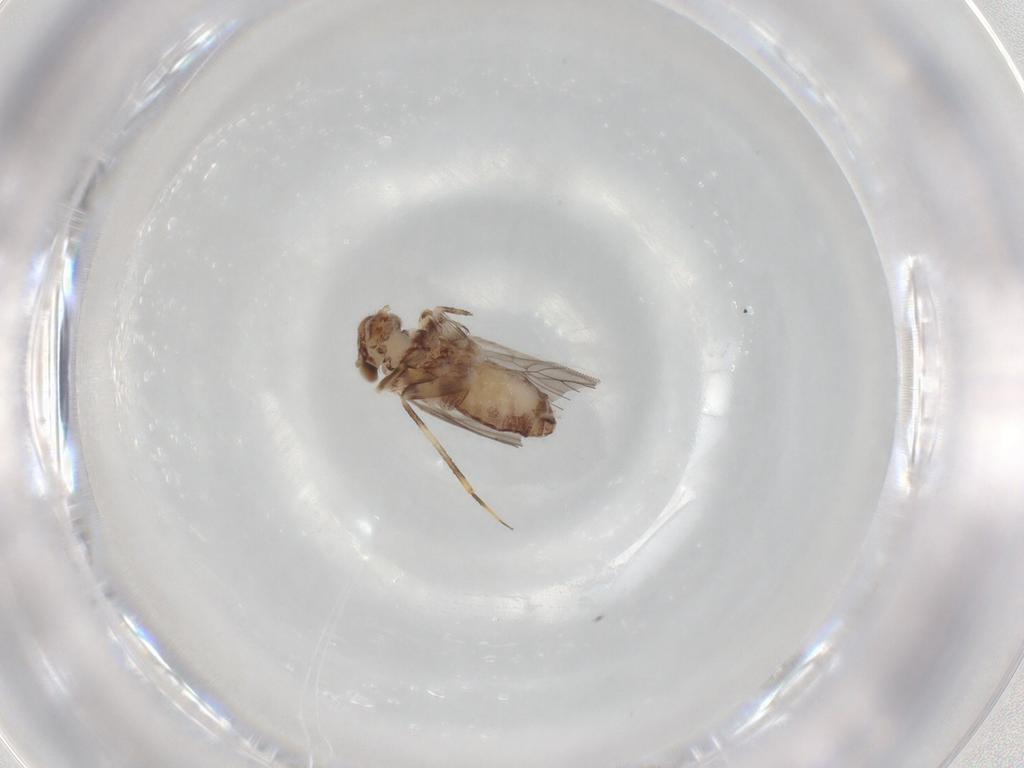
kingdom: Animalia
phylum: Arthropoda
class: Insecta
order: Psocodea
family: Lepidopsocidae
